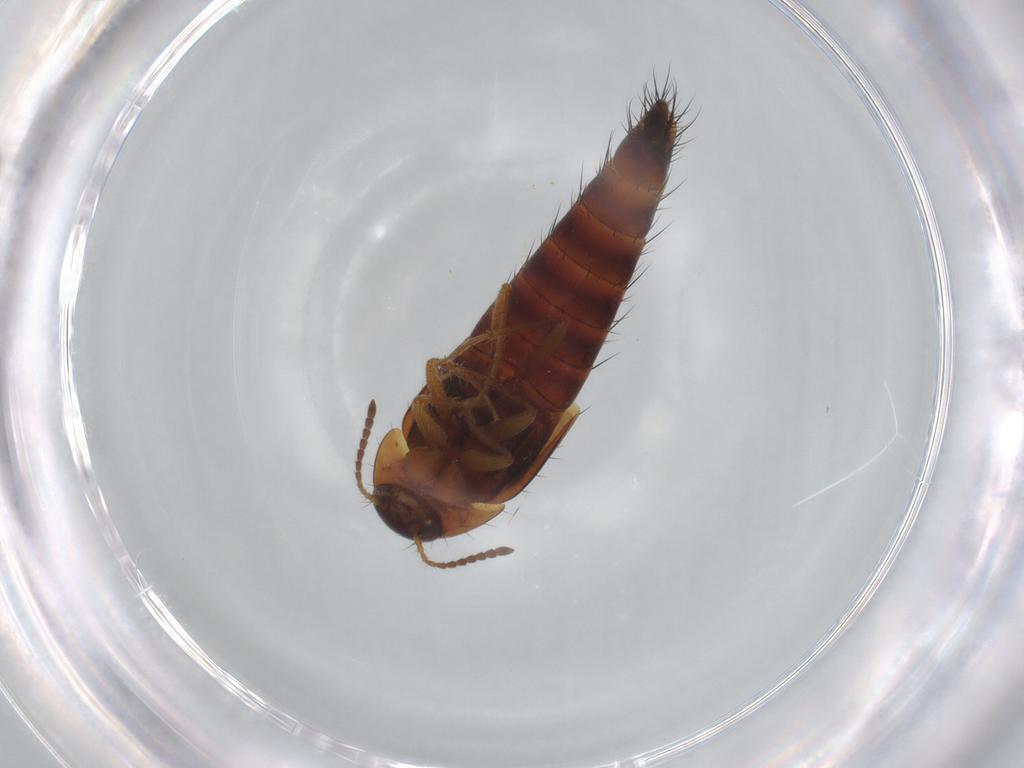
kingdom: Animalia
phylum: Arthropoda
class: Insecta
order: Coleoptera
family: Staphylinidae
